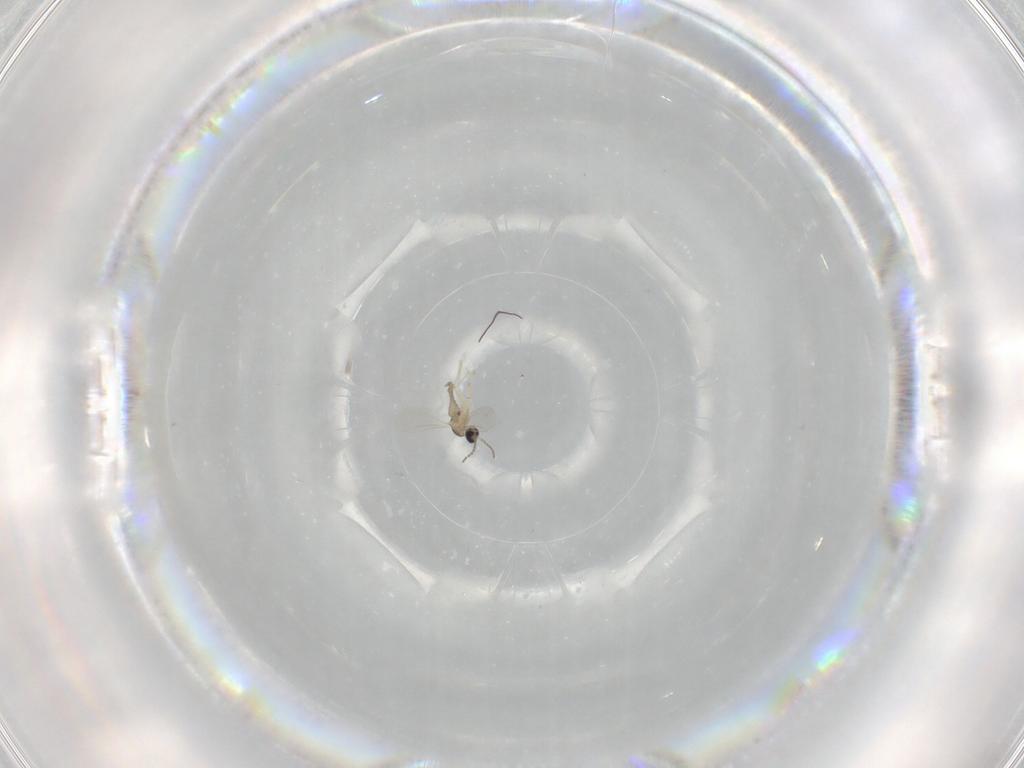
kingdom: Animalia
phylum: Arthropoda
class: Insecta
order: Diptera
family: Cecidomyiidae
